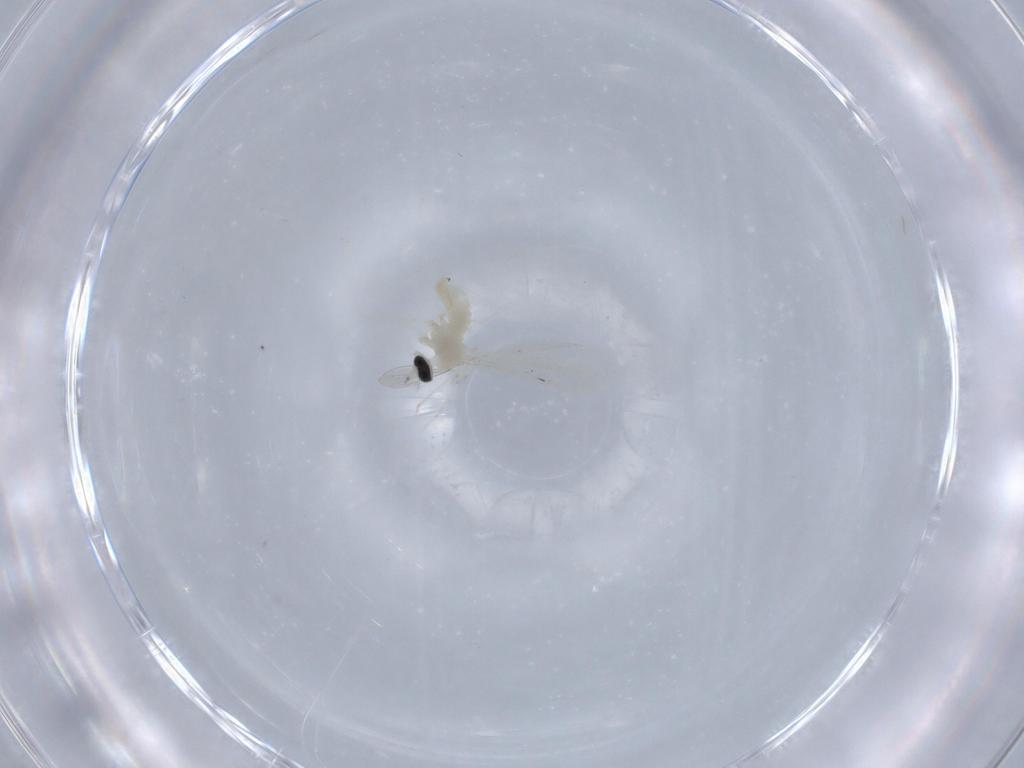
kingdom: Animalia
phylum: Arthropoda
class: Insecta
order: Diptera
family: Cecidomyiidae
